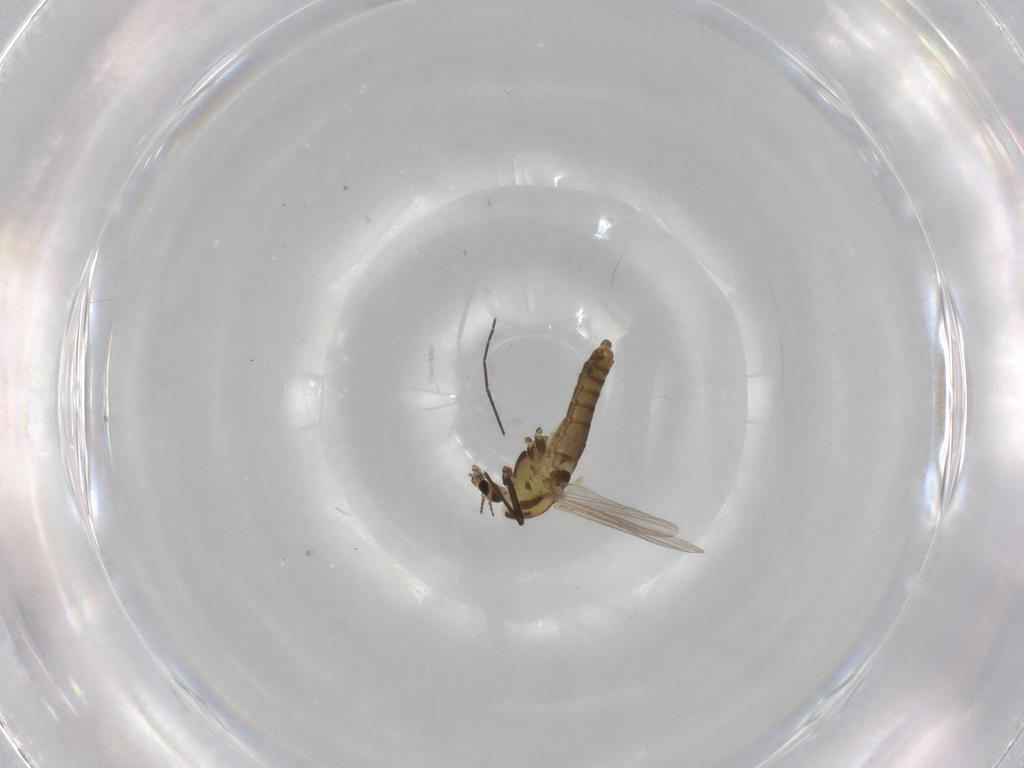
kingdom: Animalia
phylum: Arthropoda
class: Insecta
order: Diptera
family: Chironomidae
